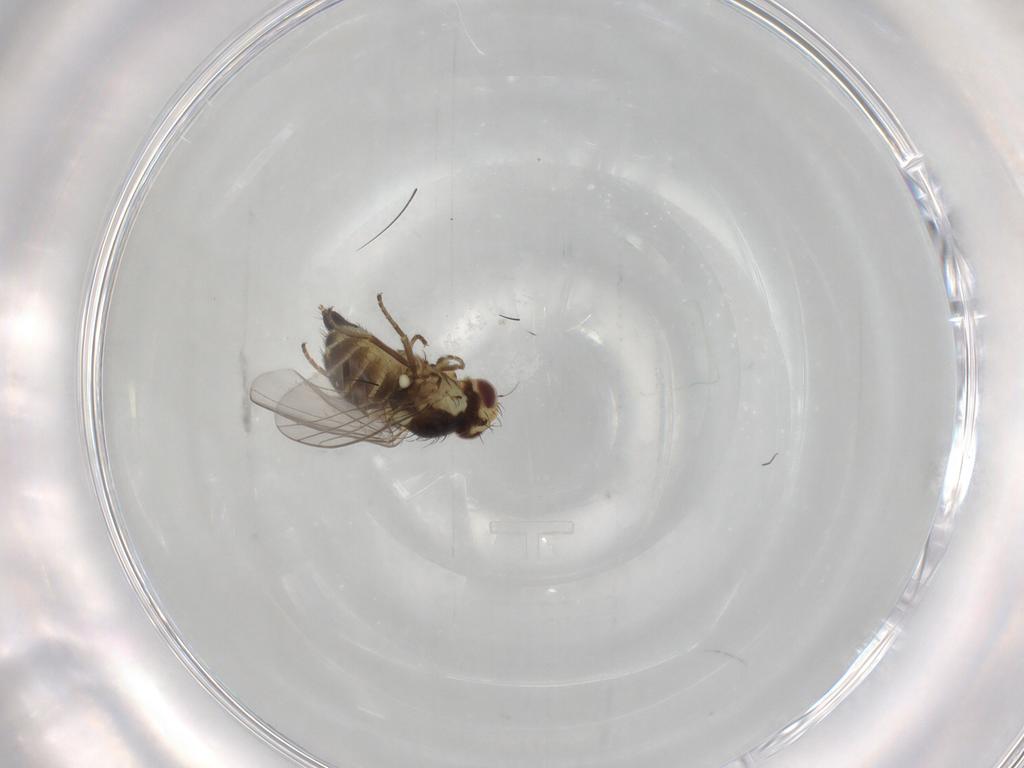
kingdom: Animalia
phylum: Arthropoda
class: Insecta
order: Diptera
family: Agromyzidae
